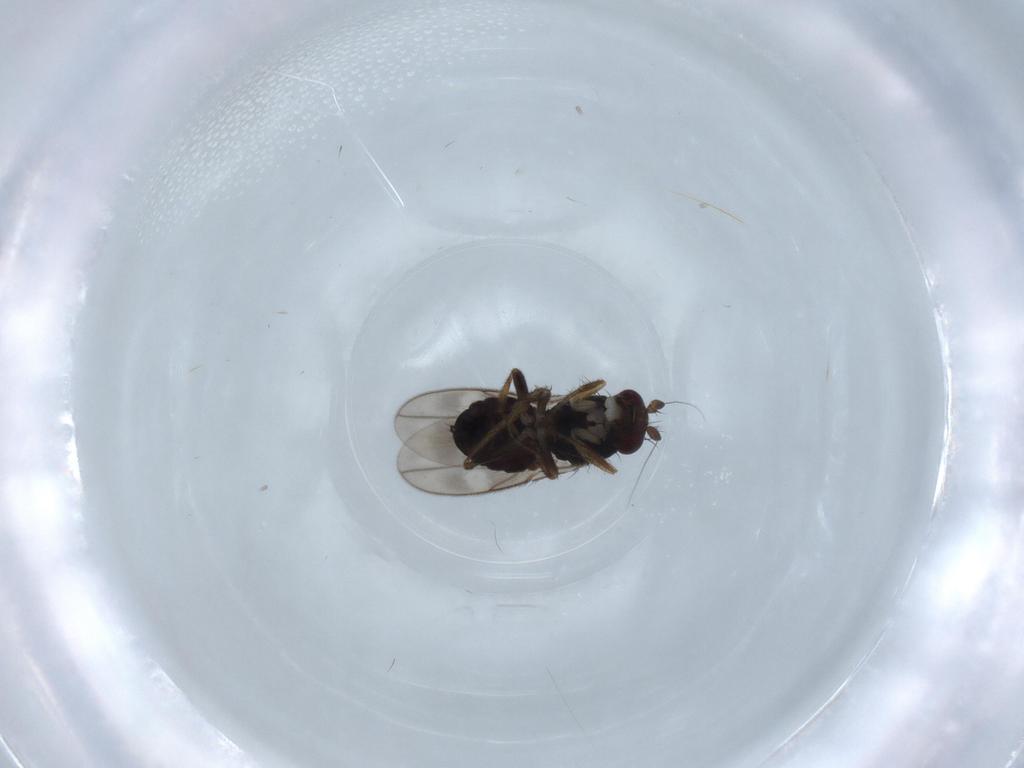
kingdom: Animalia
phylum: Arthropoda
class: Insecta
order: Diptera
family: Sphaeroceridae
